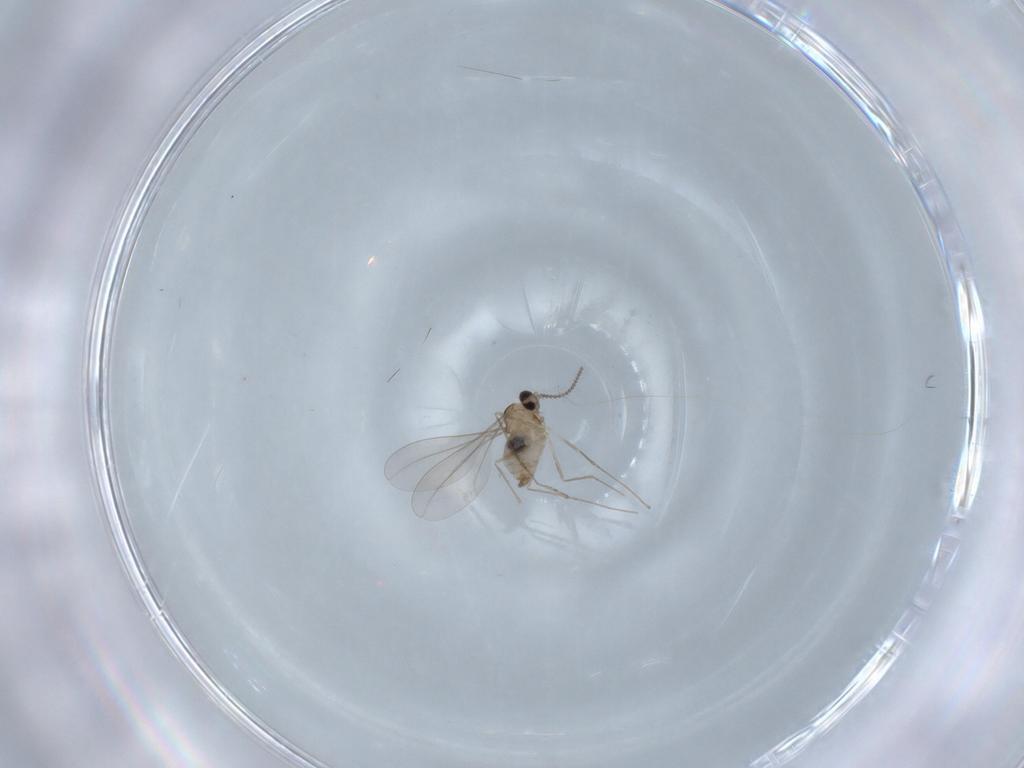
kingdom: Animalia
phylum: Arthropoda
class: Insecta
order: Diptera
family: Cecidomyiidae
